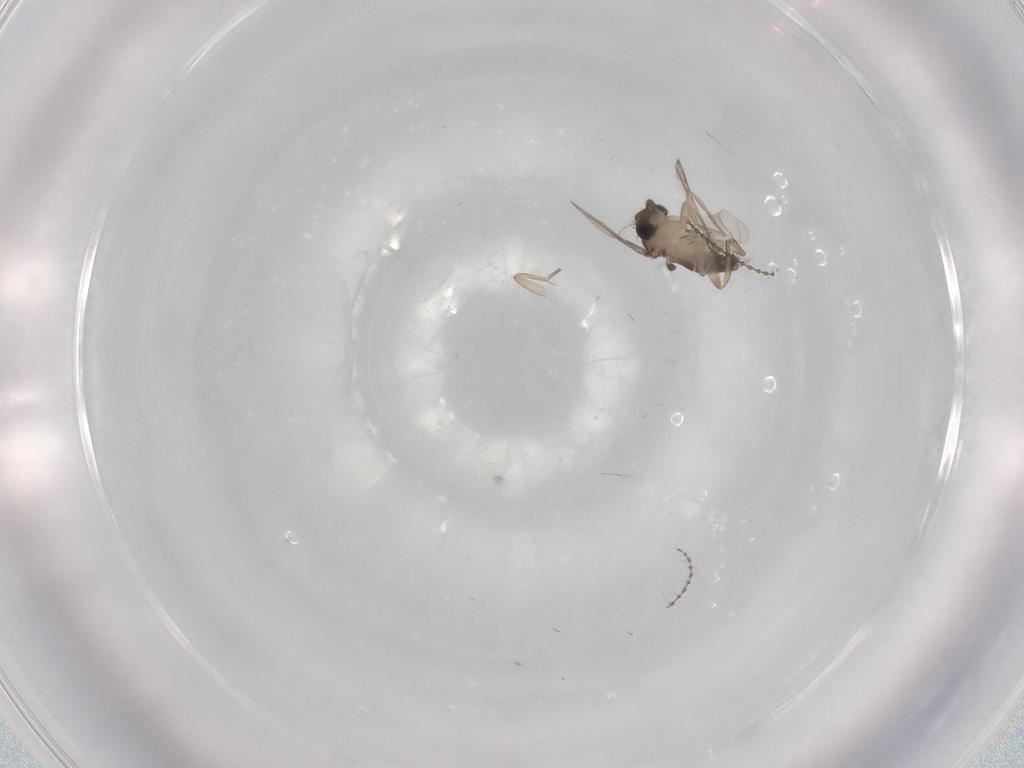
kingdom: Animalia
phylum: Arthropoda
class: Insecta
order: Diptera
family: Phoridae
